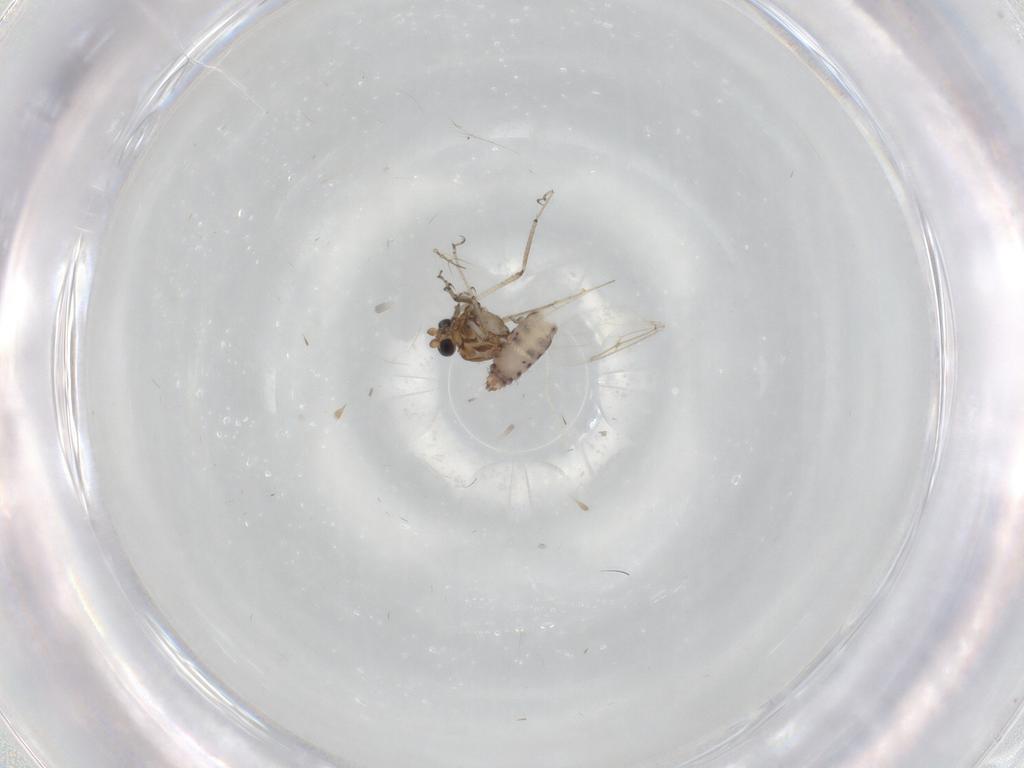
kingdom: Animalia
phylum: Arthropoda
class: Insecta
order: Diptera
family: Ceratopogonidae
